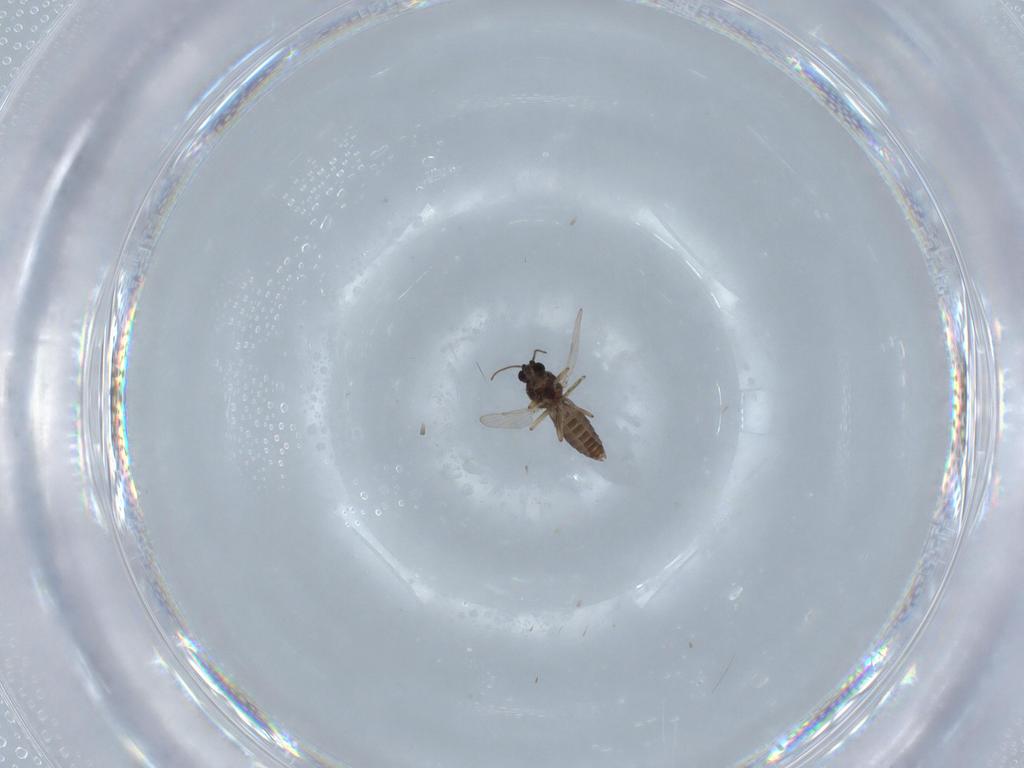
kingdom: Animalia
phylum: Arthropoda
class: Insecta
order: Diptera
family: Ceratopogonidae
